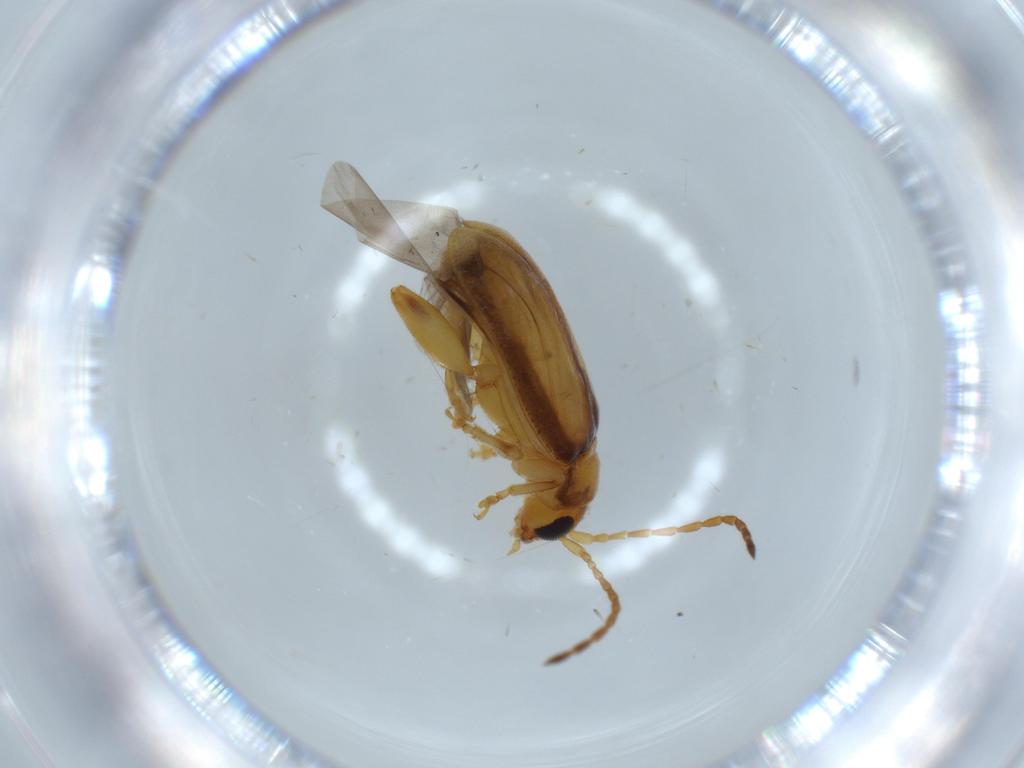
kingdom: Animalia
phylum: Arthropoda
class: Insecta
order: Coleoptera
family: Chrysomelidae
